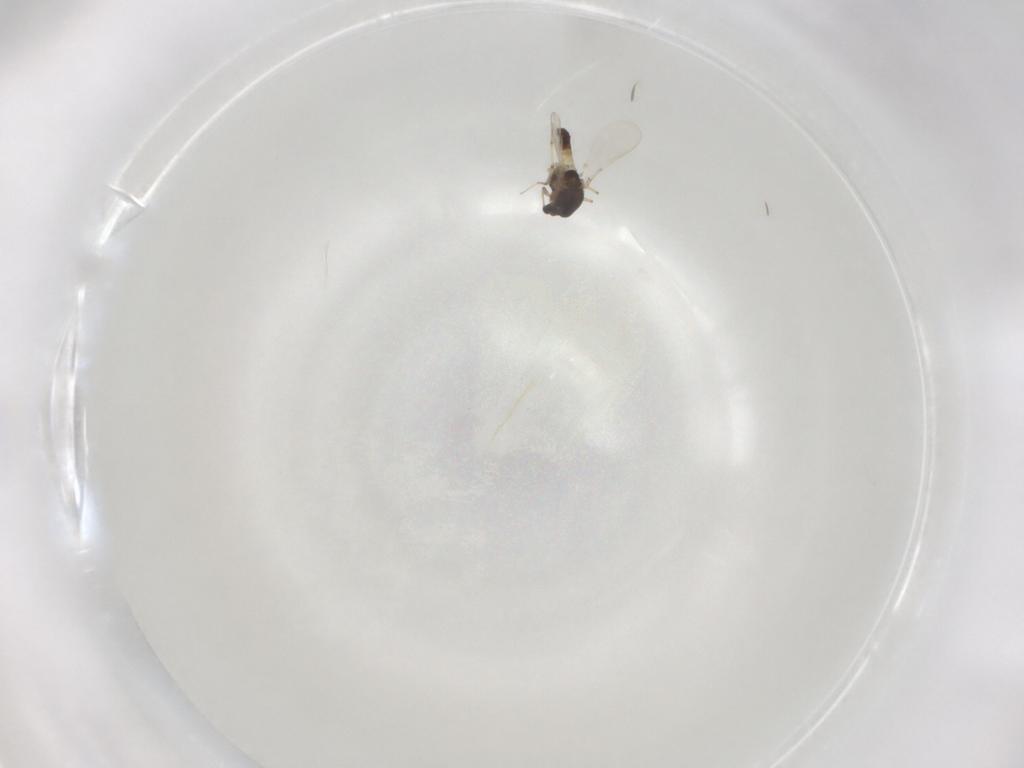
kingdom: Animalia
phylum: Arthropoda
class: Insecta
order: Diptera
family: Chironomidae
